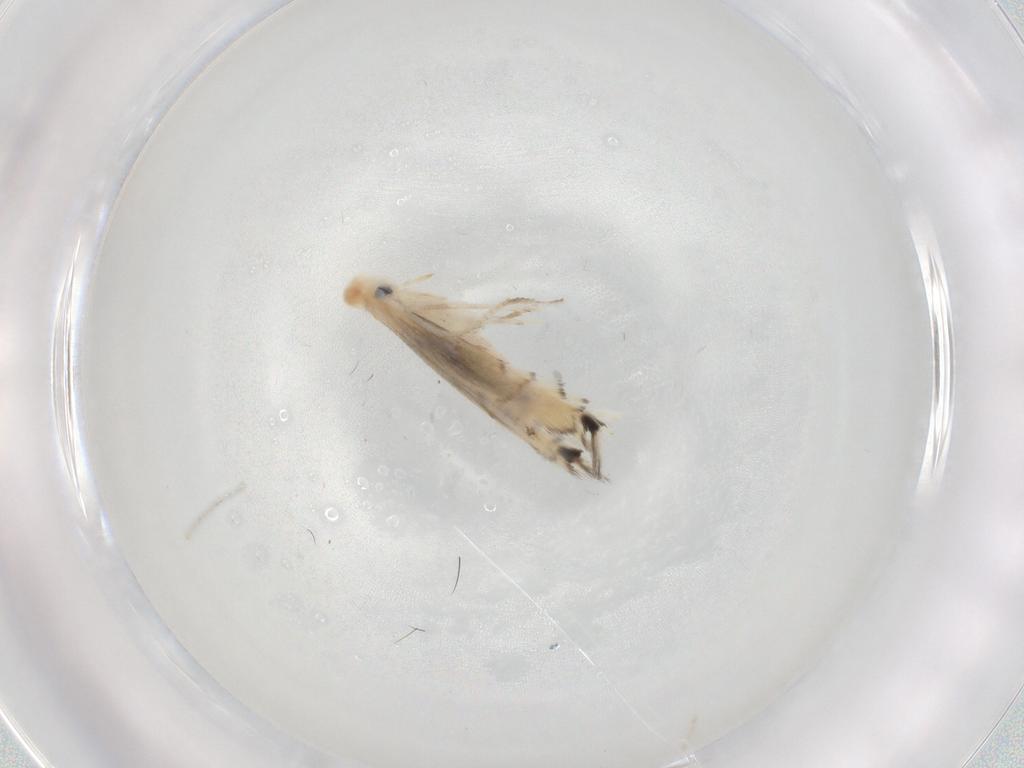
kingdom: Animalia
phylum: Arthropoda
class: Insecta
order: Lepidoptera
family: Gracillariidae
